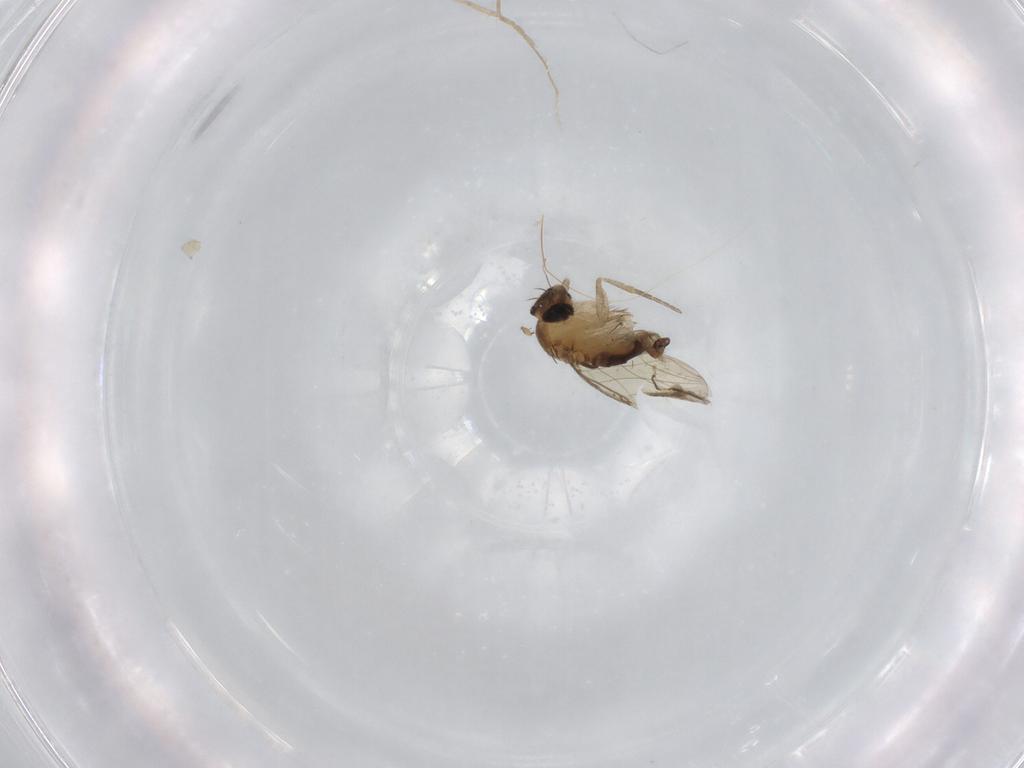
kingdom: Animalia
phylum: Arthropoda
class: Insecta
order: Diptera
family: Phoridae
